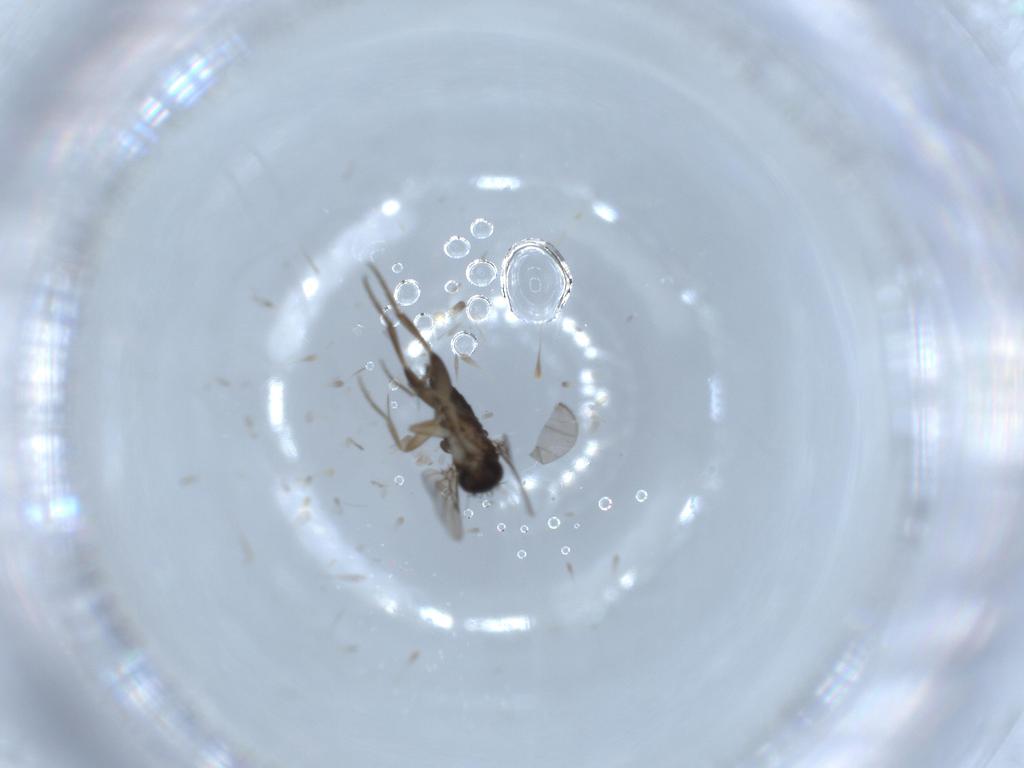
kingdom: Animalia
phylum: Arthropoda
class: Insecta
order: Diptera
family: Phoridae
